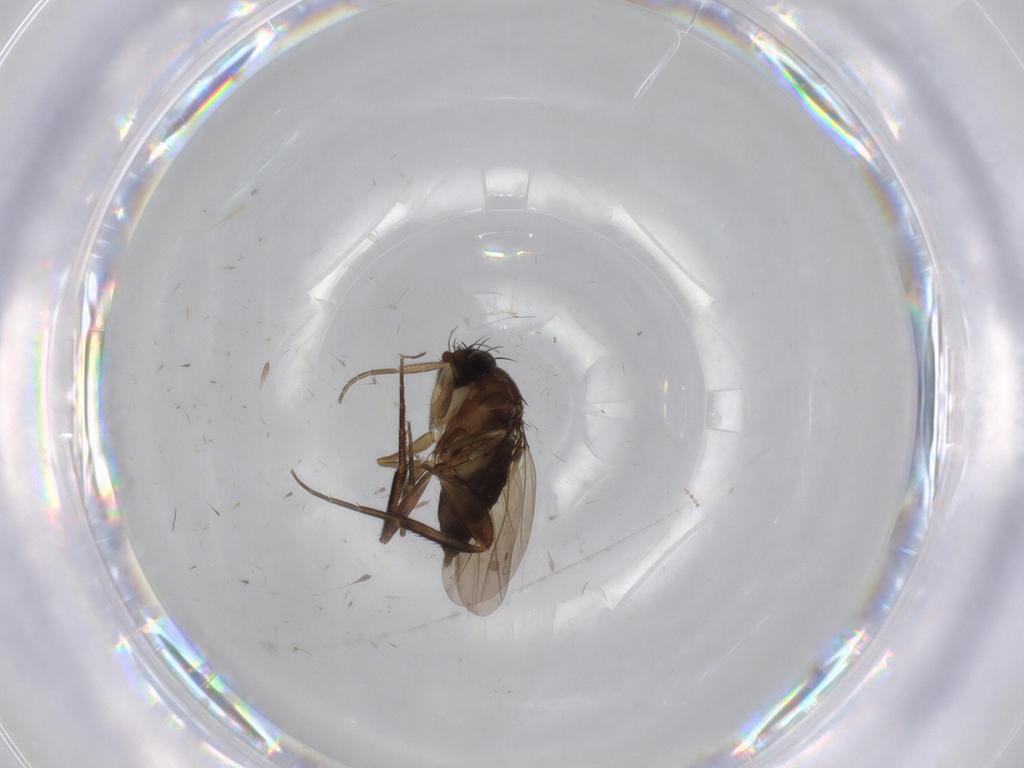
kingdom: Animalia
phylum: Arthropoda
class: Insecta
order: Diptera
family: Phoridae
